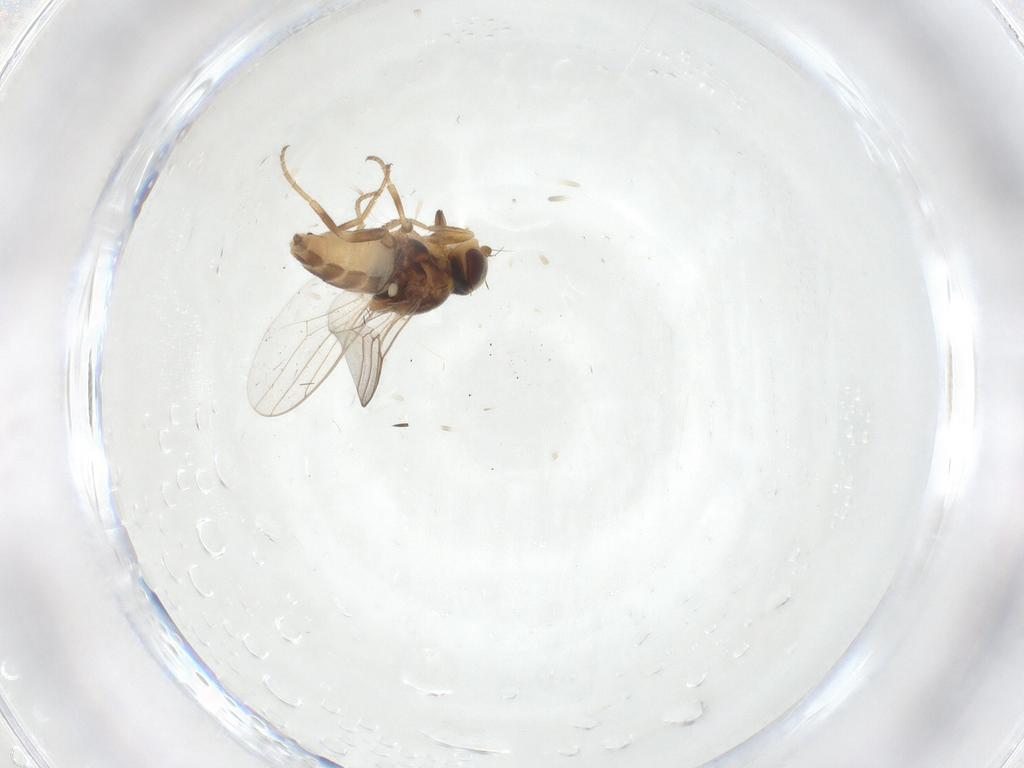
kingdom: Animalia
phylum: Arthropoda
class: Insecta
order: Diptera
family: Chloropidae
